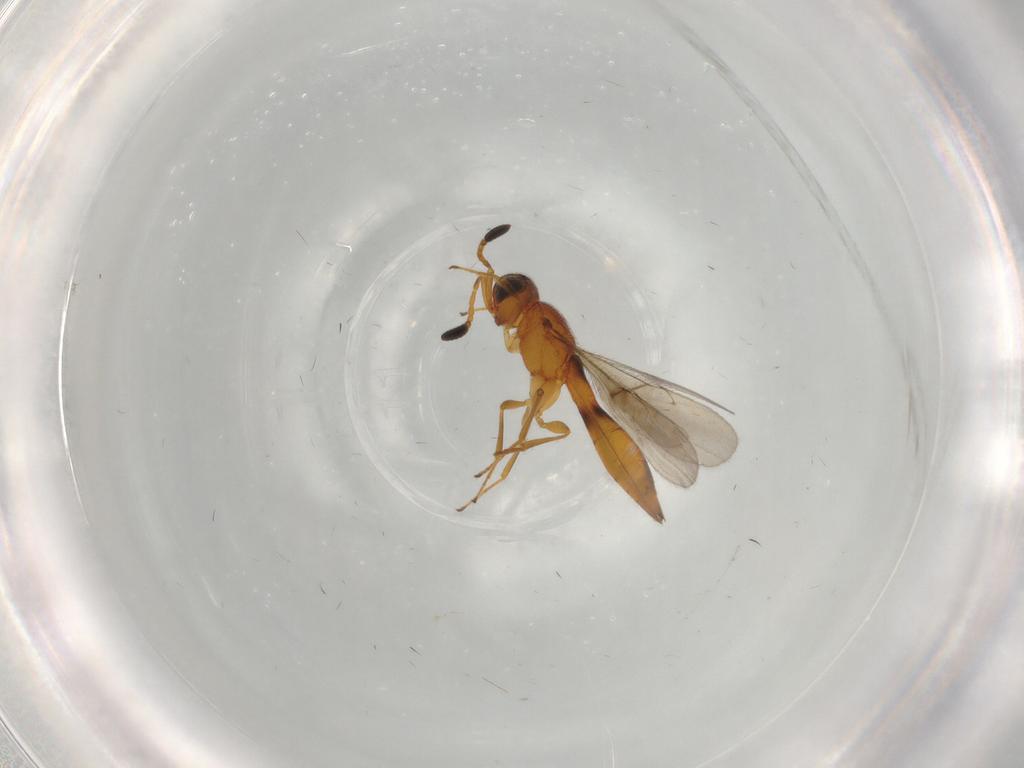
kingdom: Animalia
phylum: Arthropoda
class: Insecta
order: Hymenoptera
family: Scelionidae
